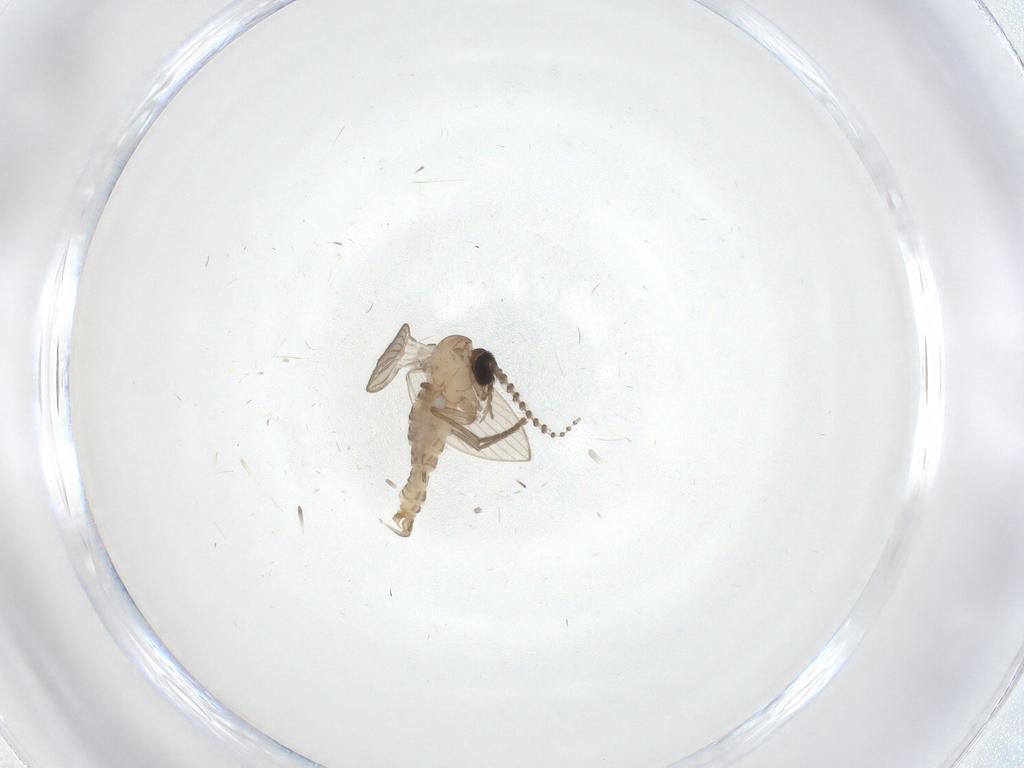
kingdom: Animalia
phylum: Arthropoda
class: Insecta
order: Diptera
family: Psychodidae
